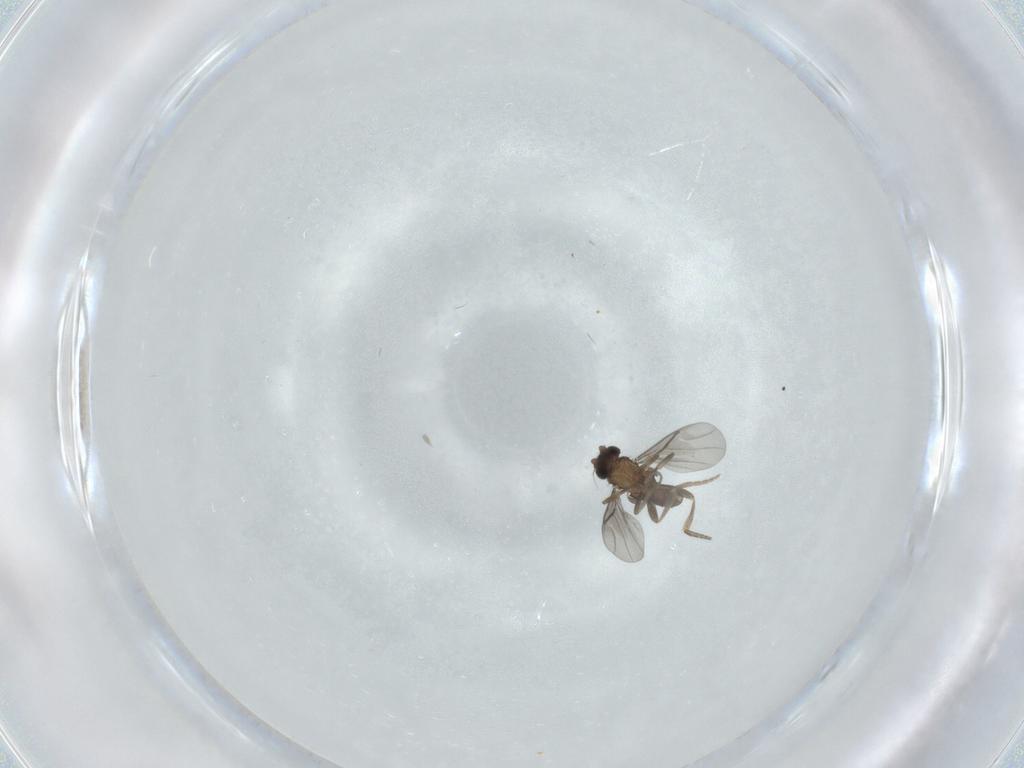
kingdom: Animalia
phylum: Arthropoda
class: Insecta
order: Diptera
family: Phoridae
